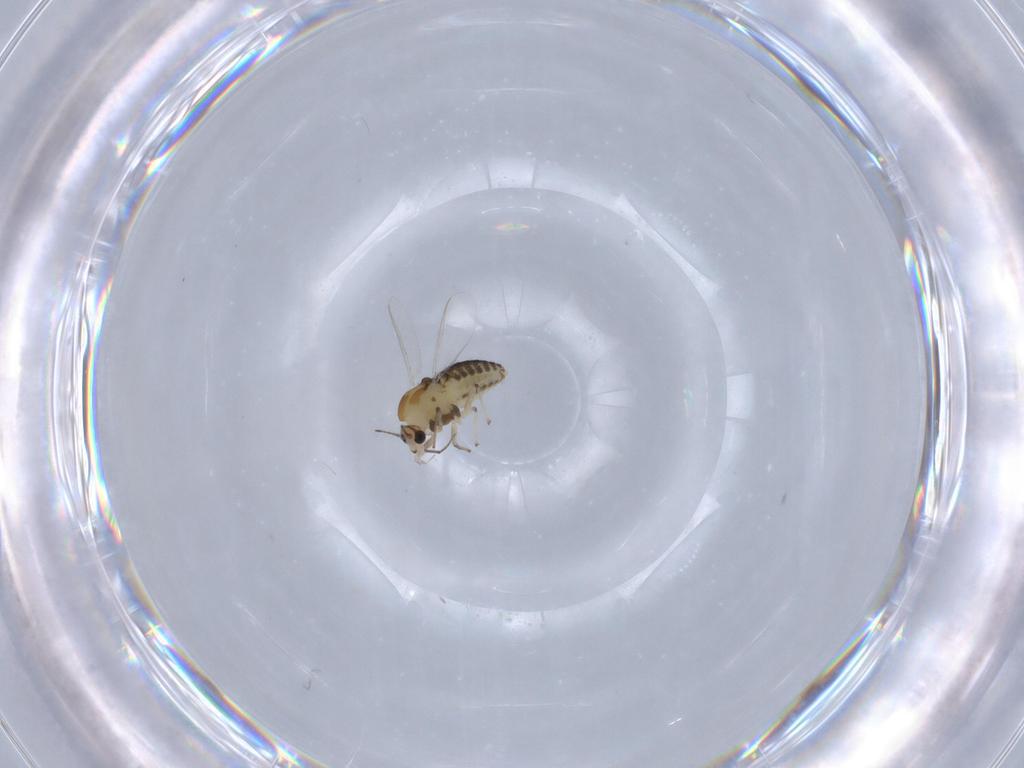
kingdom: Animalia
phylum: Arthropoda
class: Insecta
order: Diptera
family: Chironomidae
